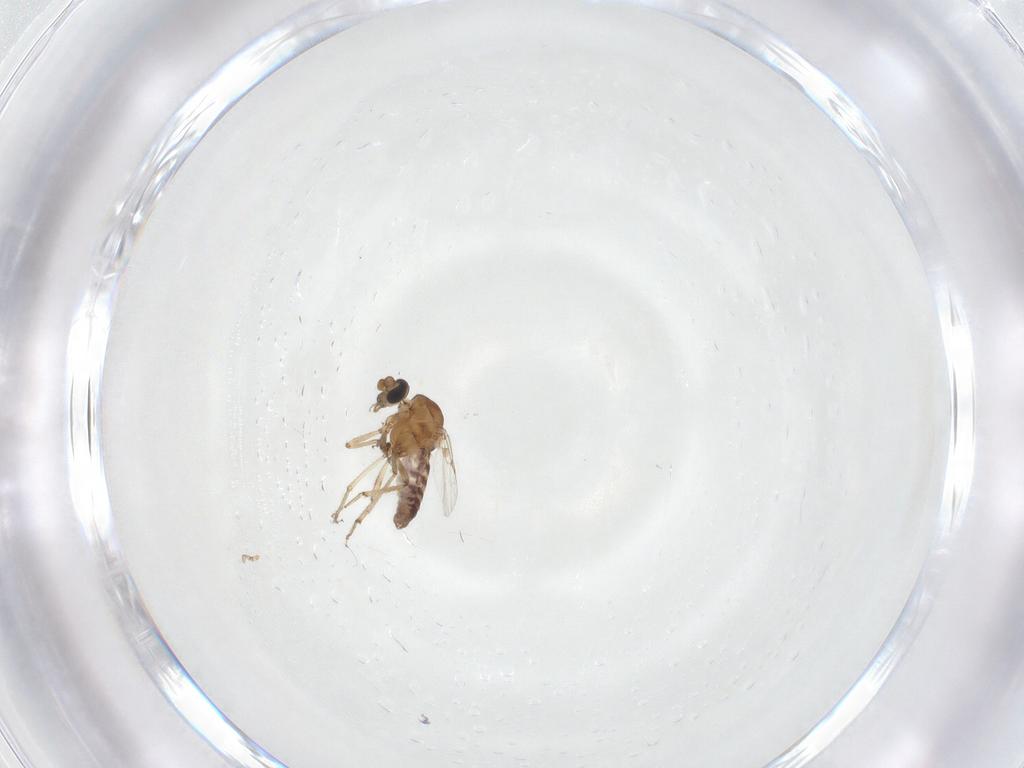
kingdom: Animalia
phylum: Arthropoda
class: Insecta
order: Diptera
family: Ceratopogonidae
